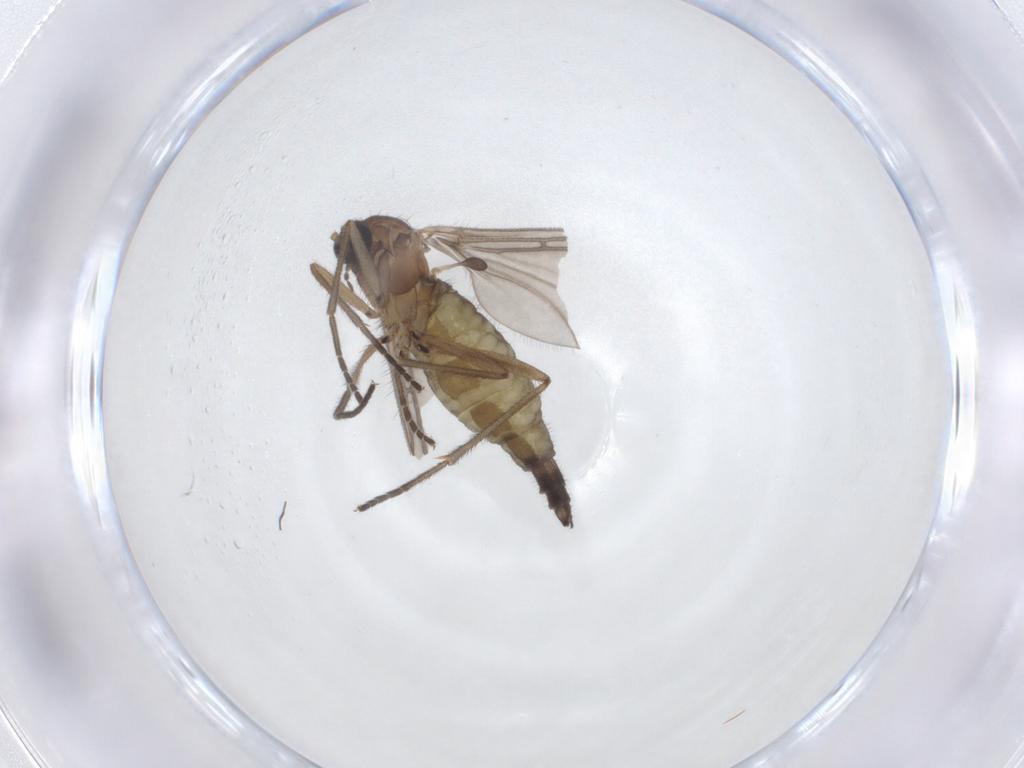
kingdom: Animalia
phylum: Arthropoda
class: Insecta
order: Diptera
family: Sciaridae
